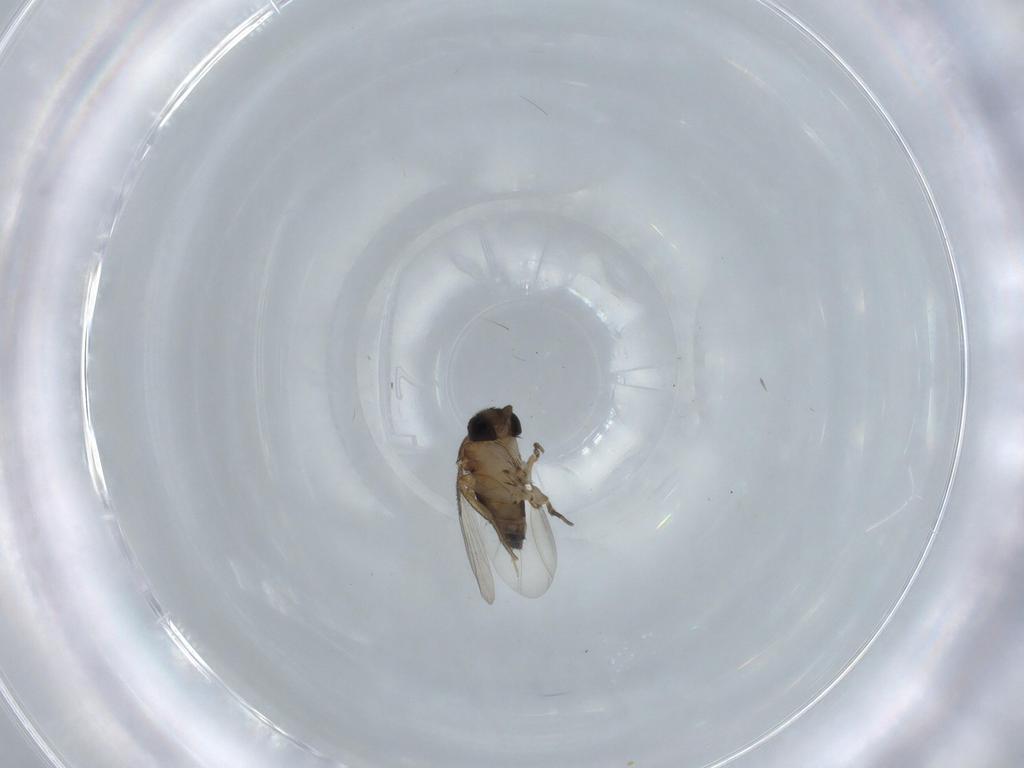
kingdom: Animalia
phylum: Arthropoda
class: Insecta
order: Diptera
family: Phoridae
